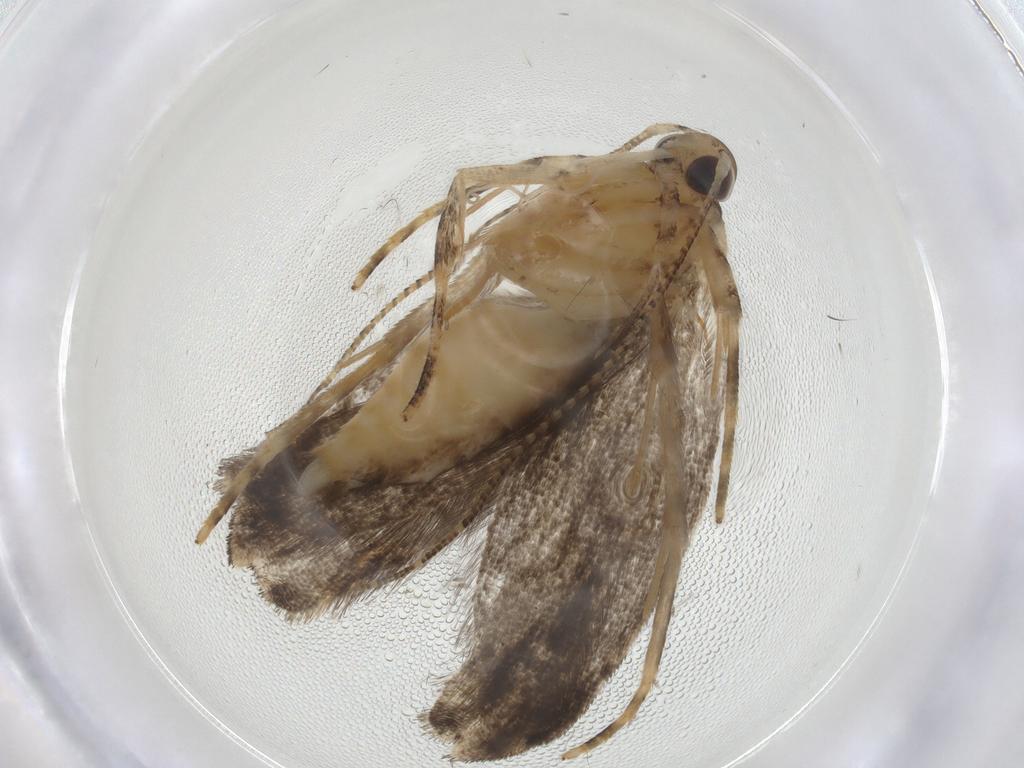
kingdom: Animalia
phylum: Arthropoda
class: Insecta
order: Lepidoptera
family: Gelechiidae
